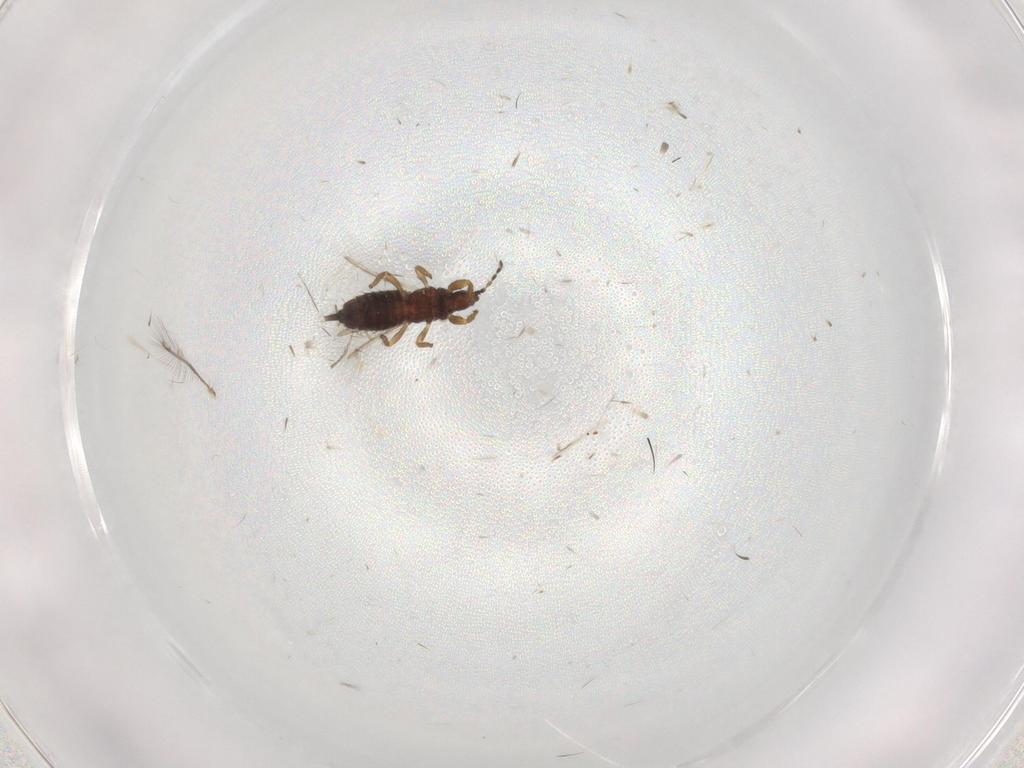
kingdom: Animalia
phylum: Arthropoda
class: Insecta
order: Thysanoptera
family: Phlaeothripidae
